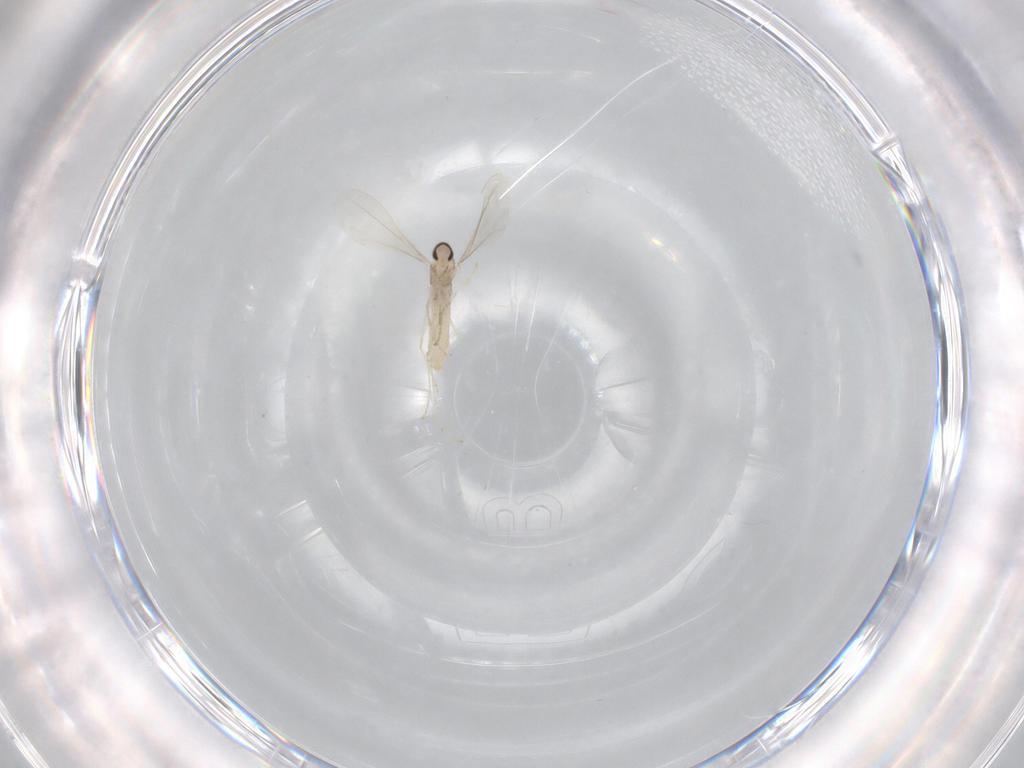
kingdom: Animalia
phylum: Arthropoda
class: Insecta
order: Diptera
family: Cecidomyiidae
